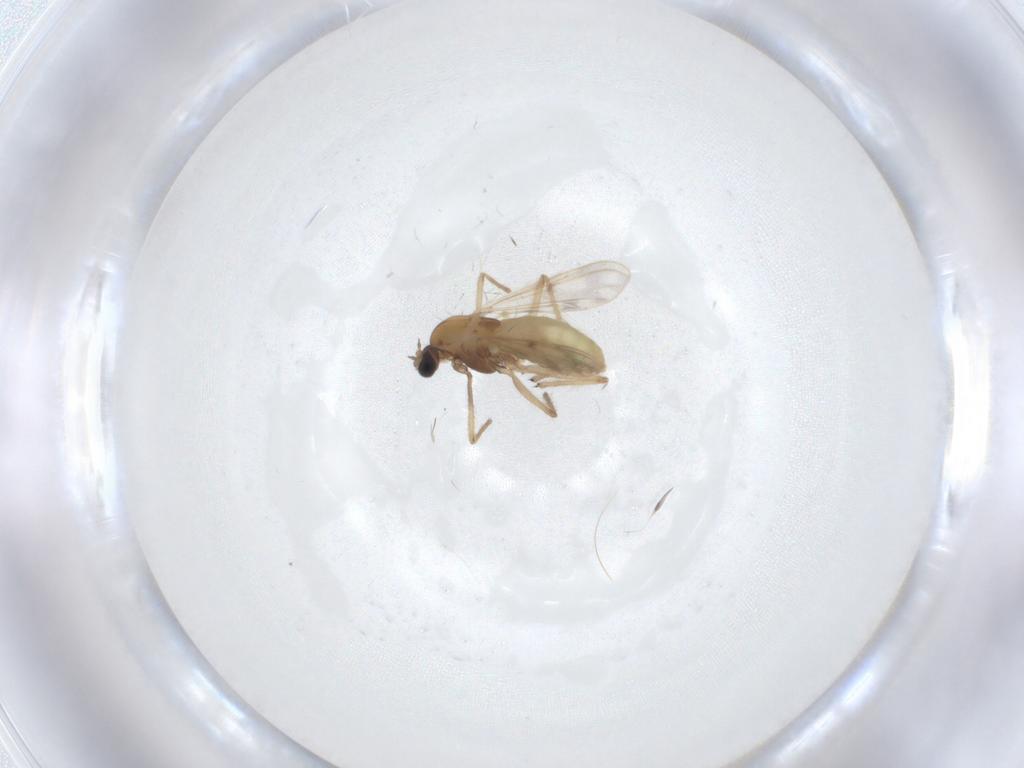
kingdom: Animalia
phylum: Arthropoda
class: Insecta
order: Diptera
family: Chironomidae
